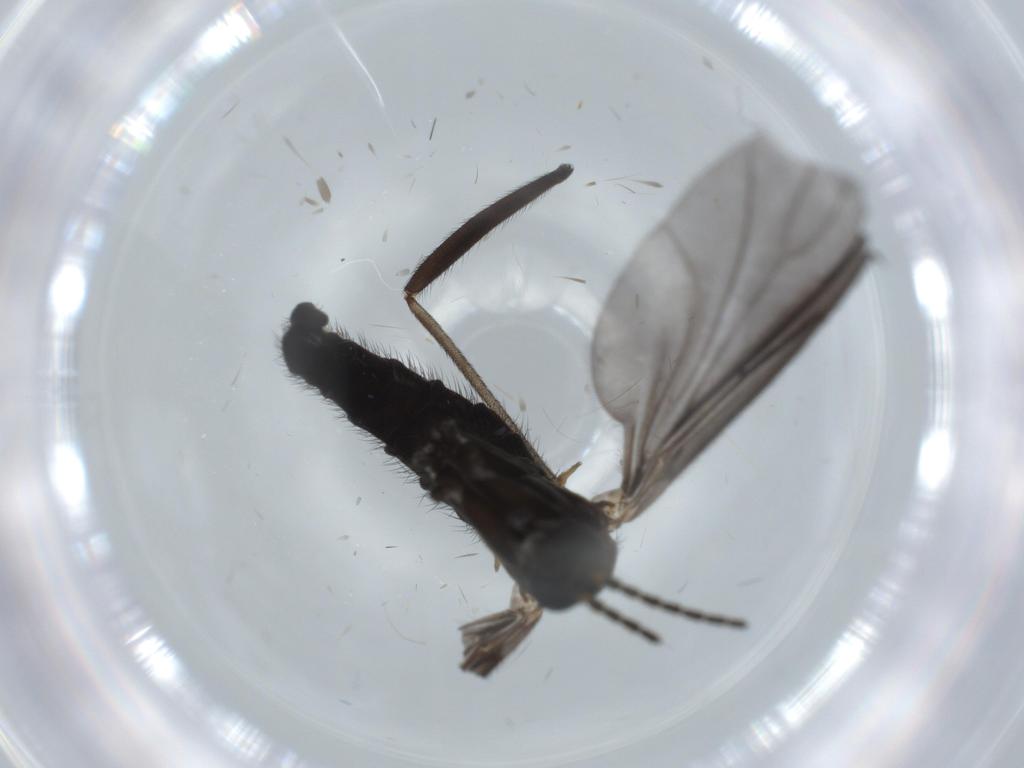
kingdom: Animalia
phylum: Arthropoda
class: Insecta
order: Diptera
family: Sciaridae
